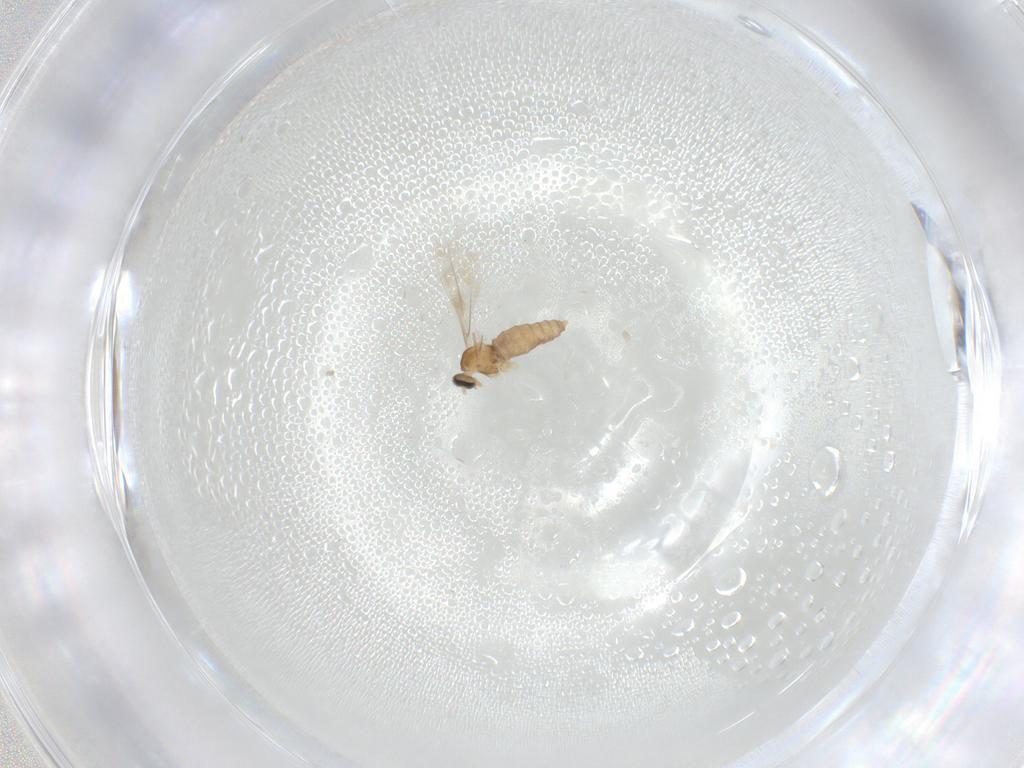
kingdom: Animalia
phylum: Arthropoda
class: Insecta
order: Diptera
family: Cecidomyiidae
